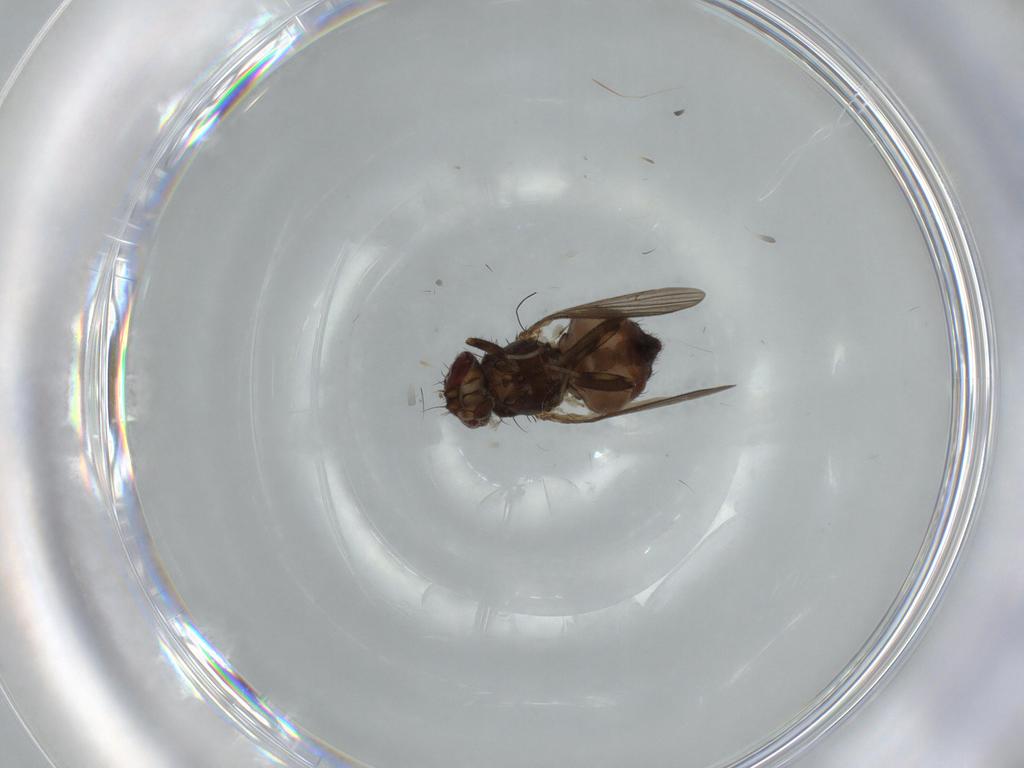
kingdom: Animalia
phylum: Arthropoda
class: Insecta
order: Diptera
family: Heleomyzidae
